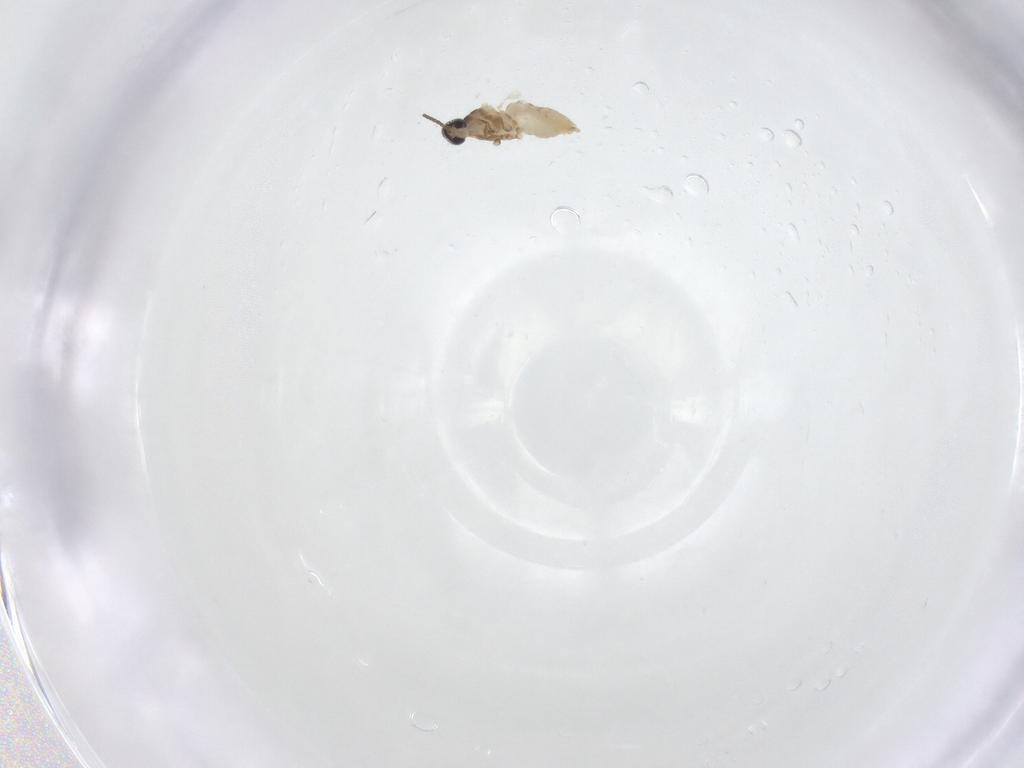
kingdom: Animalia
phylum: Arthropoda
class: Insecta
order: Diptera
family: Cecidomyiidae
